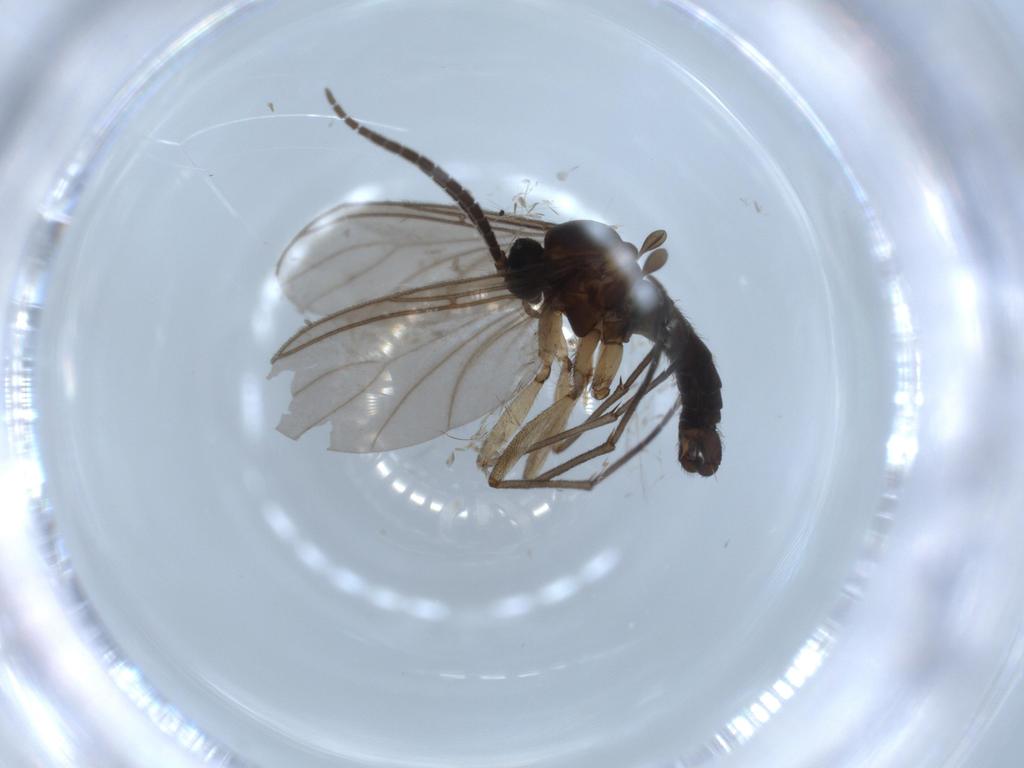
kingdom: Animalia
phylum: Arthropoda
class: Insecta
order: Diptera
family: Sciaridae
